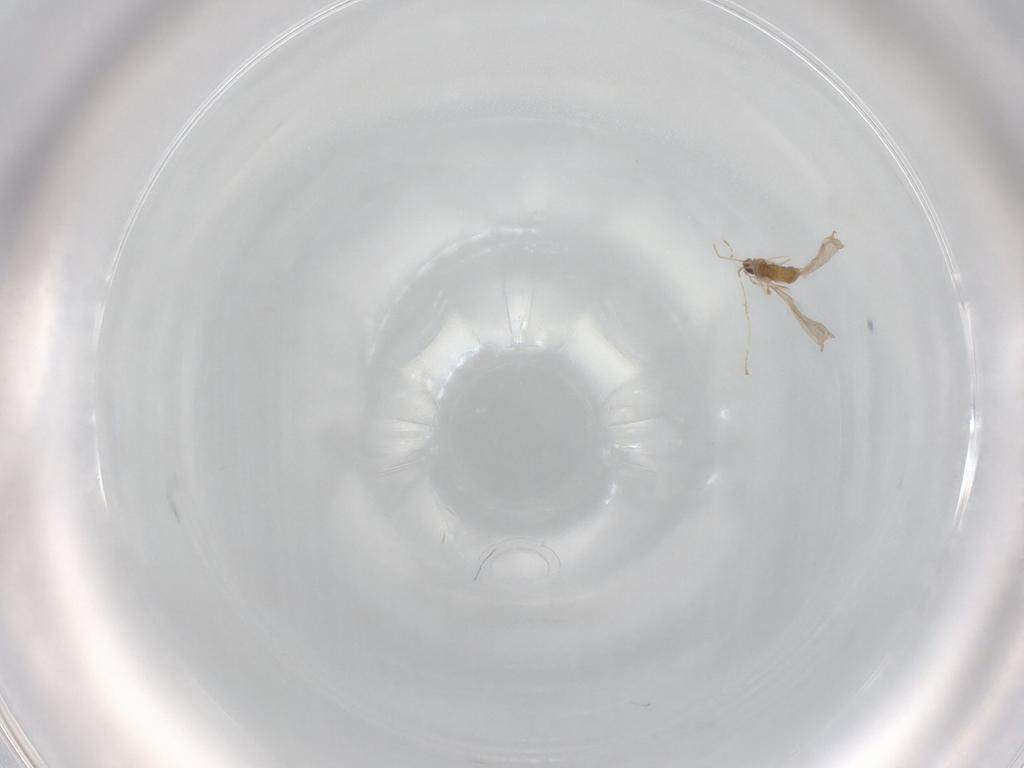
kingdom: Animalia
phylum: Arthropoda
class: Insecta
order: Diptera
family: Cecidomyiidae
